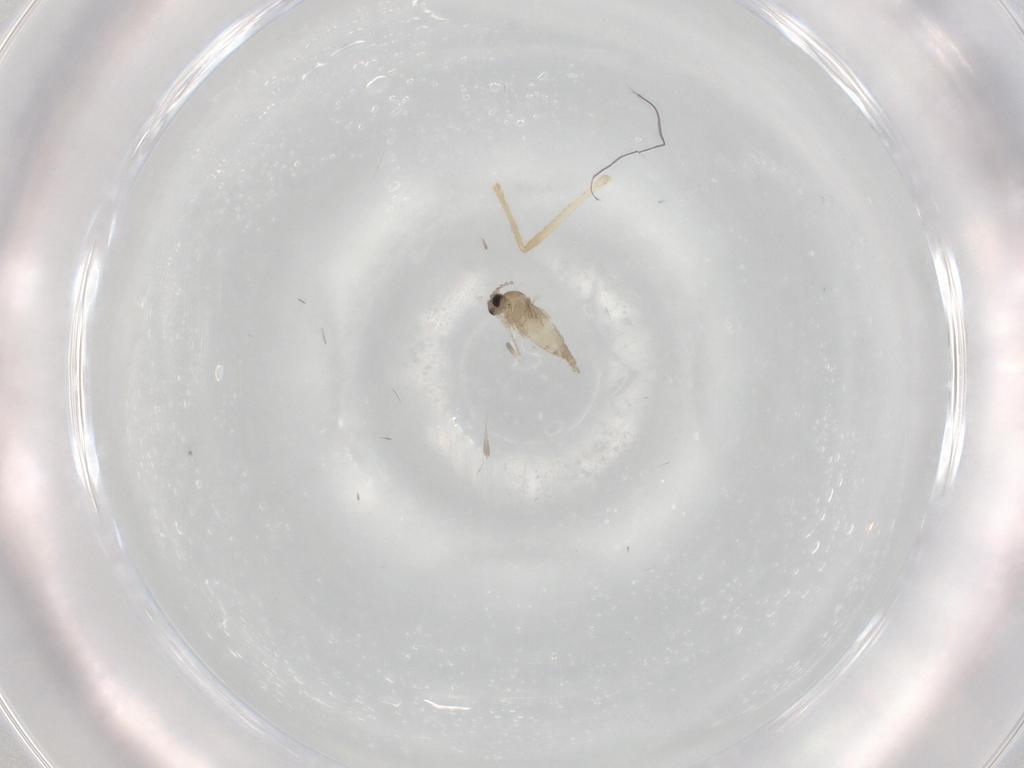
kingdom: Animalia
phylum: Arthropoda
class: Insecta
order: Diptera
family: Cecidomyiidae
